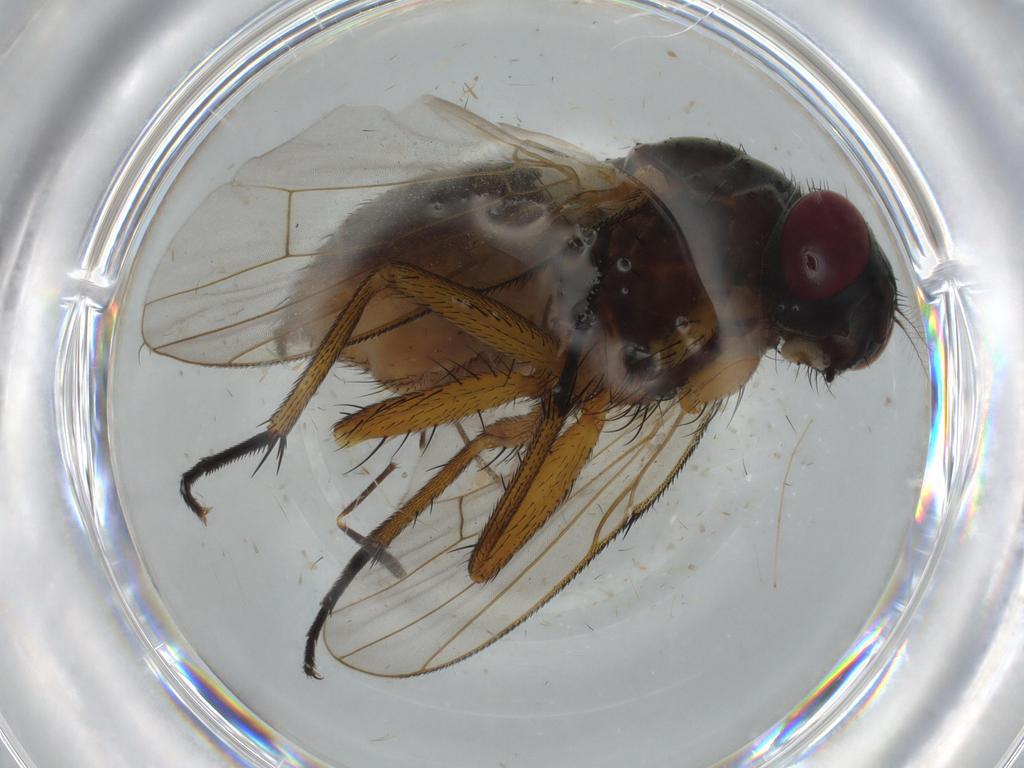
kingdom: Animalia
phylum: Arthropoda
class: Insecta
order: Diptera
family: Muscidae
